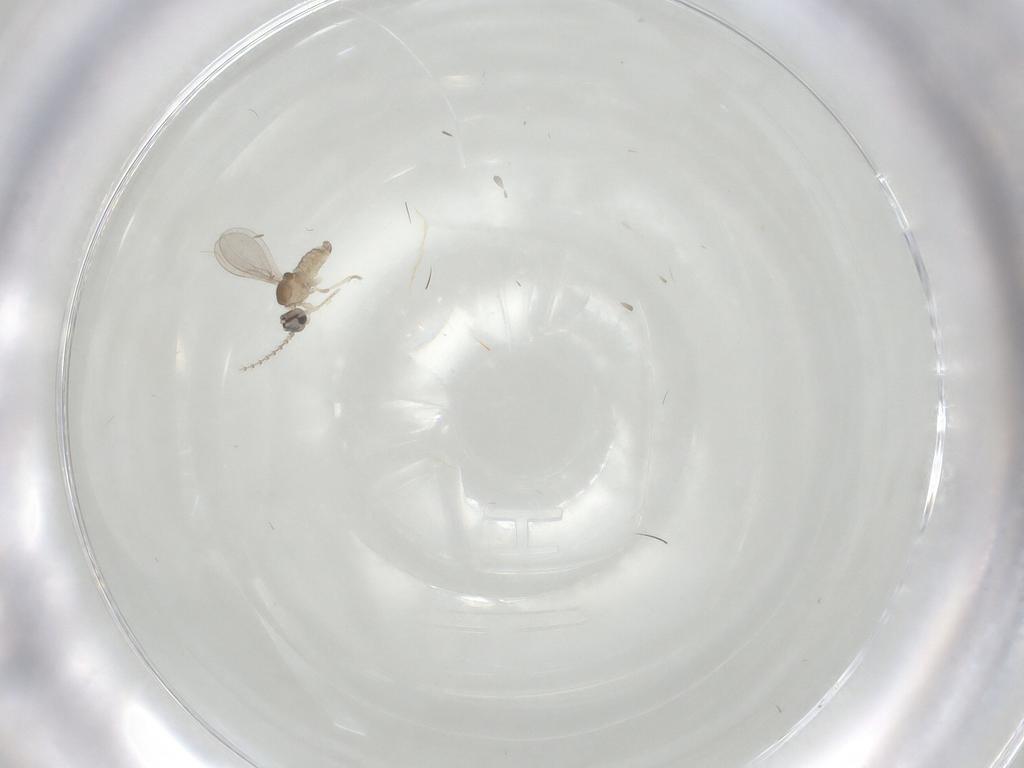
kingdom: Animalia
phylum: Arthropoda
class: Insecta
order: Diptera
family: Cecidomyiidae
